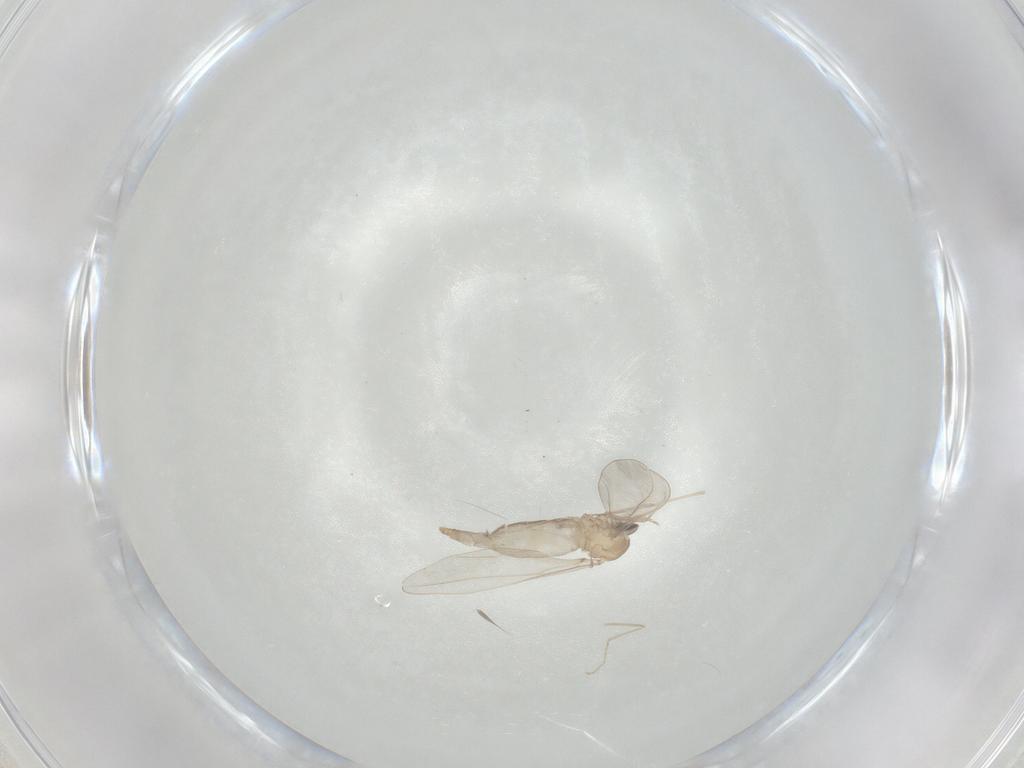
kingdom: Animalia
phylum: Arthropoda
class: Insecta
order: Diptera
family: Cecidomyiidae
